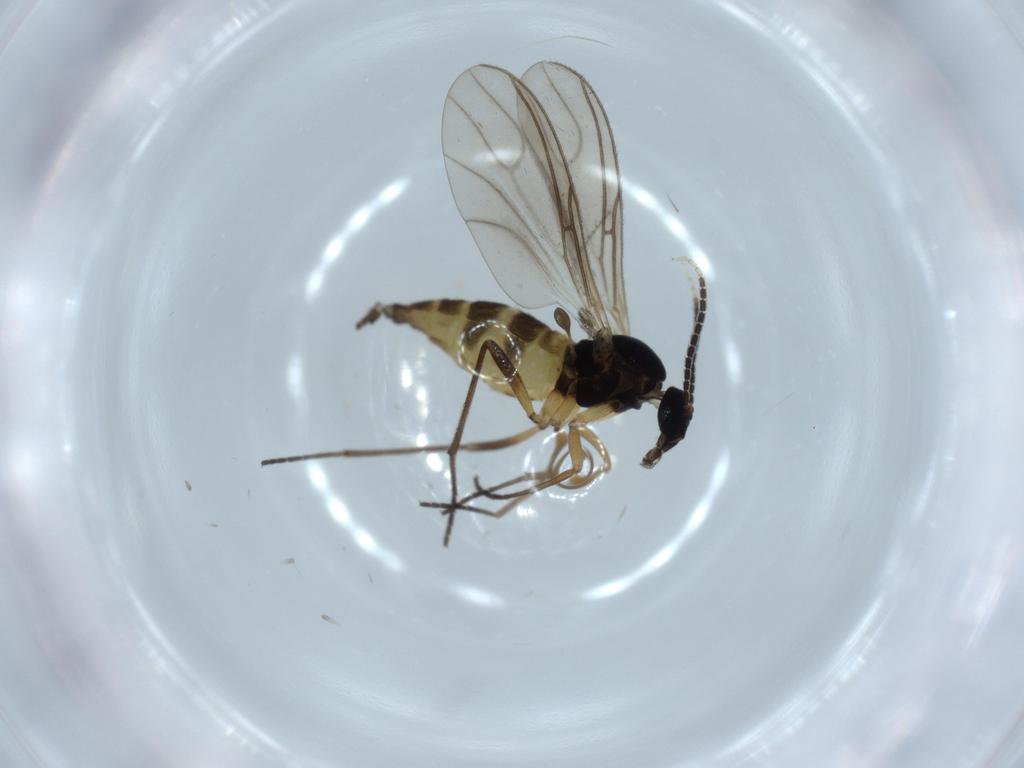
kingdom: Animalia
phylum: Arthropoda
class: Insecta
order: Diptera
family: Sciaridae
